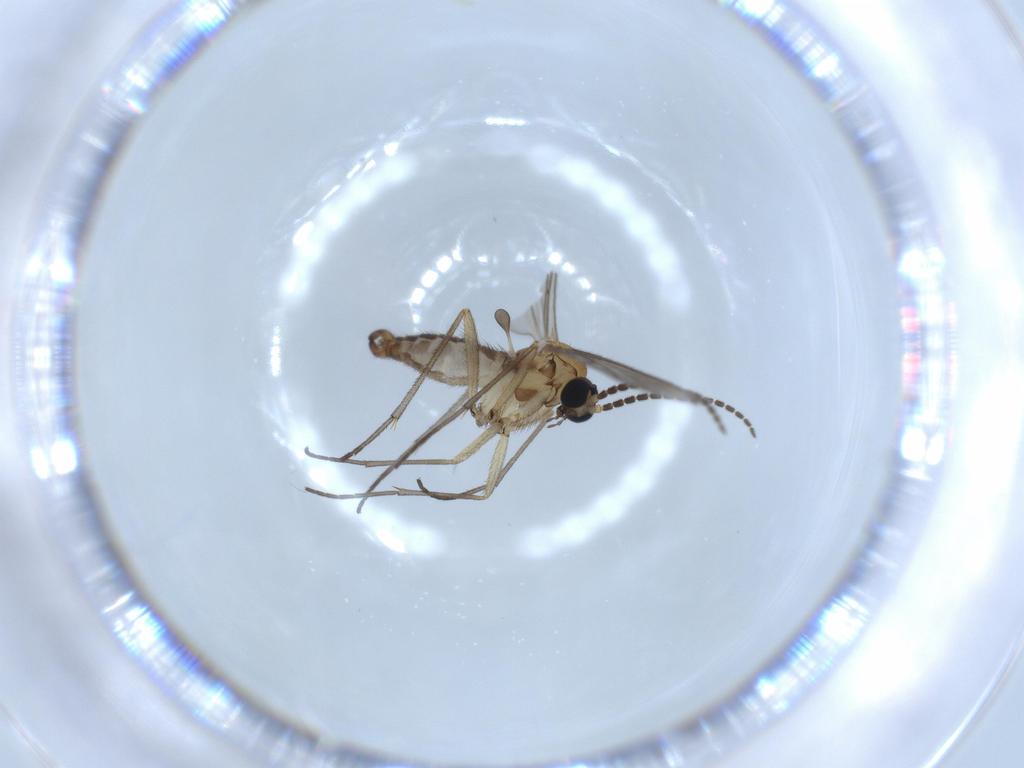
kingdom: Animalia
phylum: Arthropoda
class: Insecta
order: Diptera
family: Sciaridae
